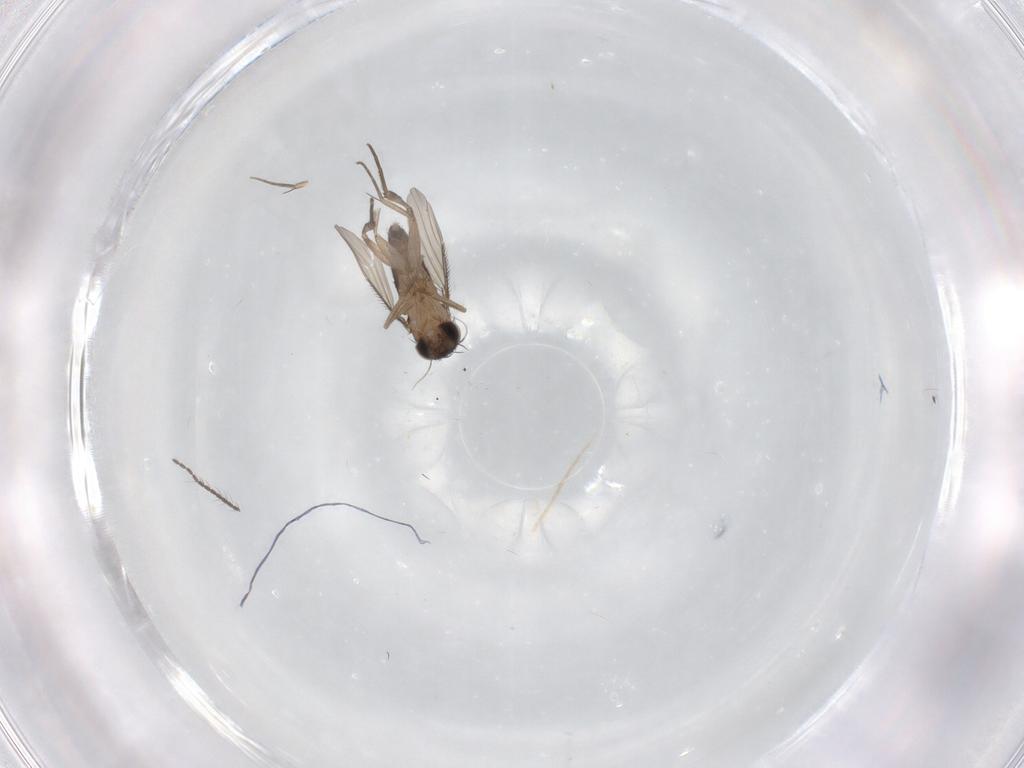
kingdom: Animalia
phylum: Arthropoda
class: Insecta
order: Diptera
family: Phoridae
